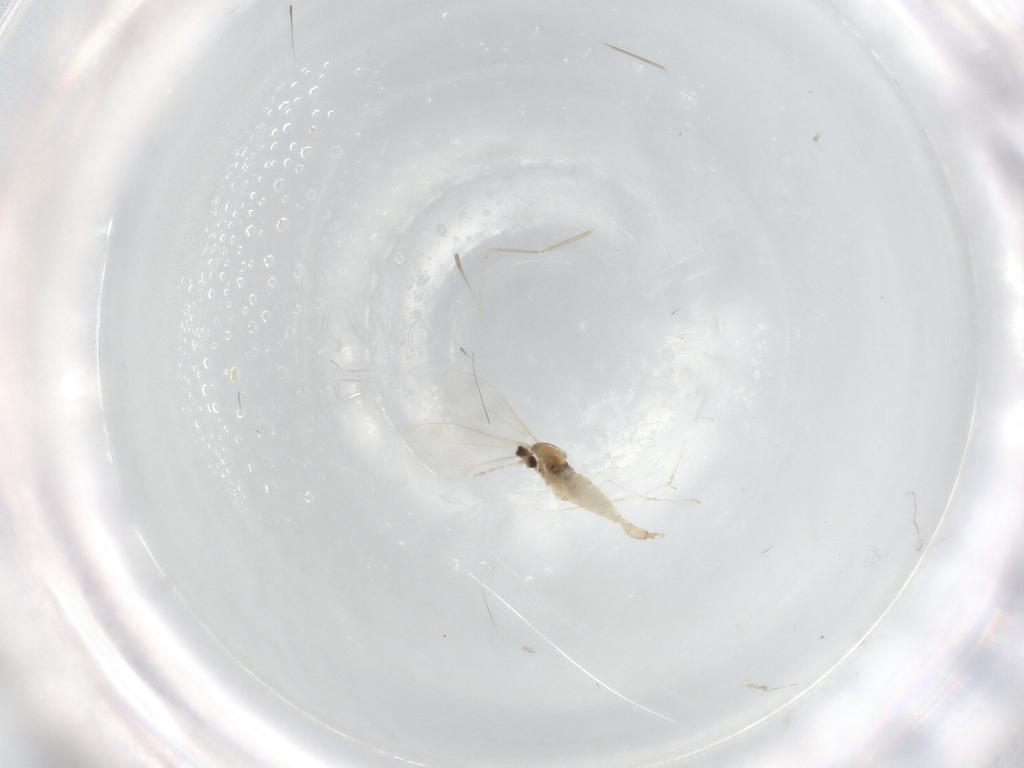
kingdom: Animalia
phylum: Arthropoda
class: Insecta
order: Diptera
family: Cecidomyiidae
